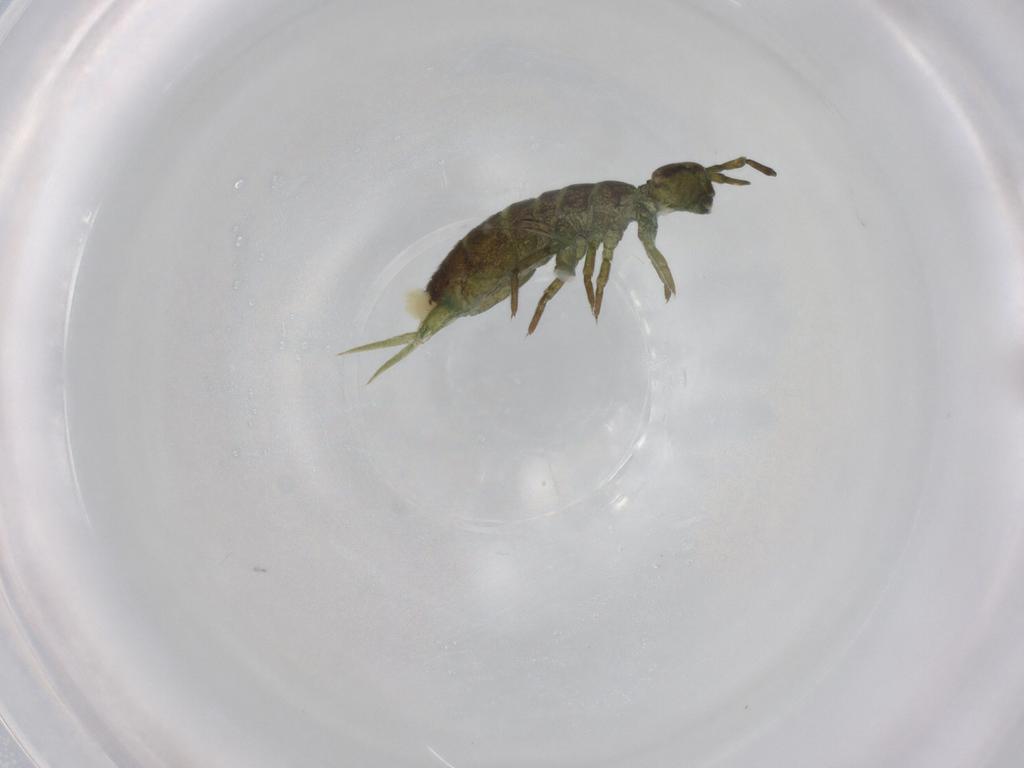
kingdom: Animalia
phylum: Arthropoda
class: Collembola
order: Entomobryomorpha
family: Isotomidae
